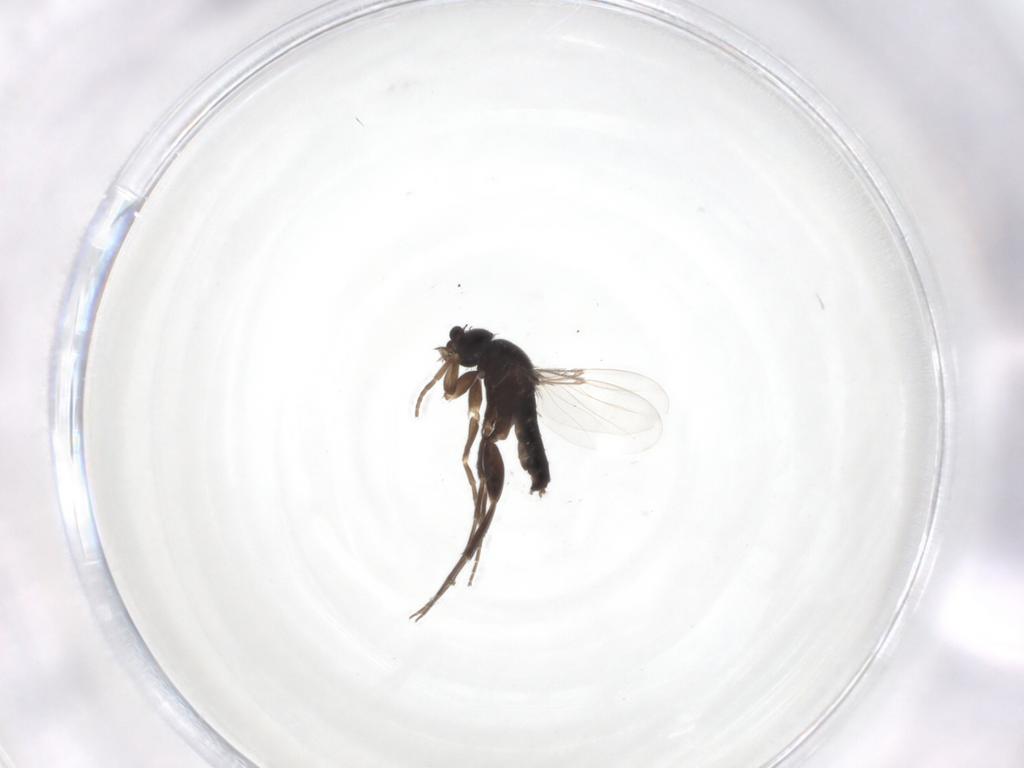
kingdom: Animalia
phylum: Arthropoda
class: Insecta
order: Diptera
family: Phoridae
